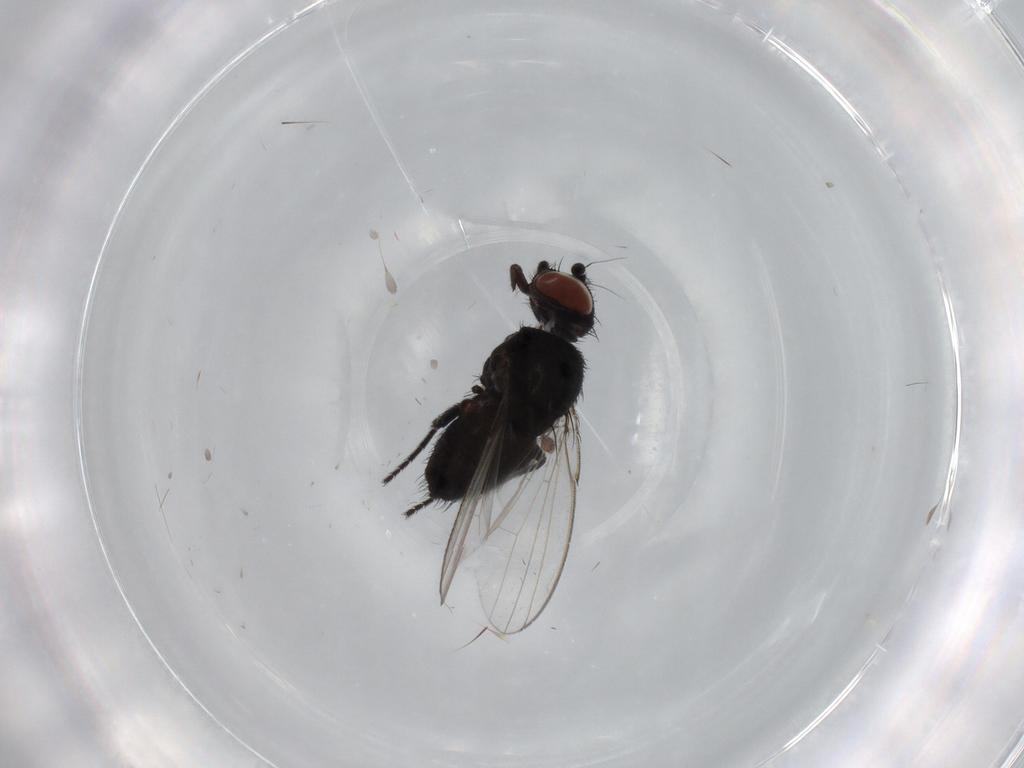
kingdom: Animalia
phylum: Arthropoda
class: Insecta
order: Diptera
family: Milichiidae
